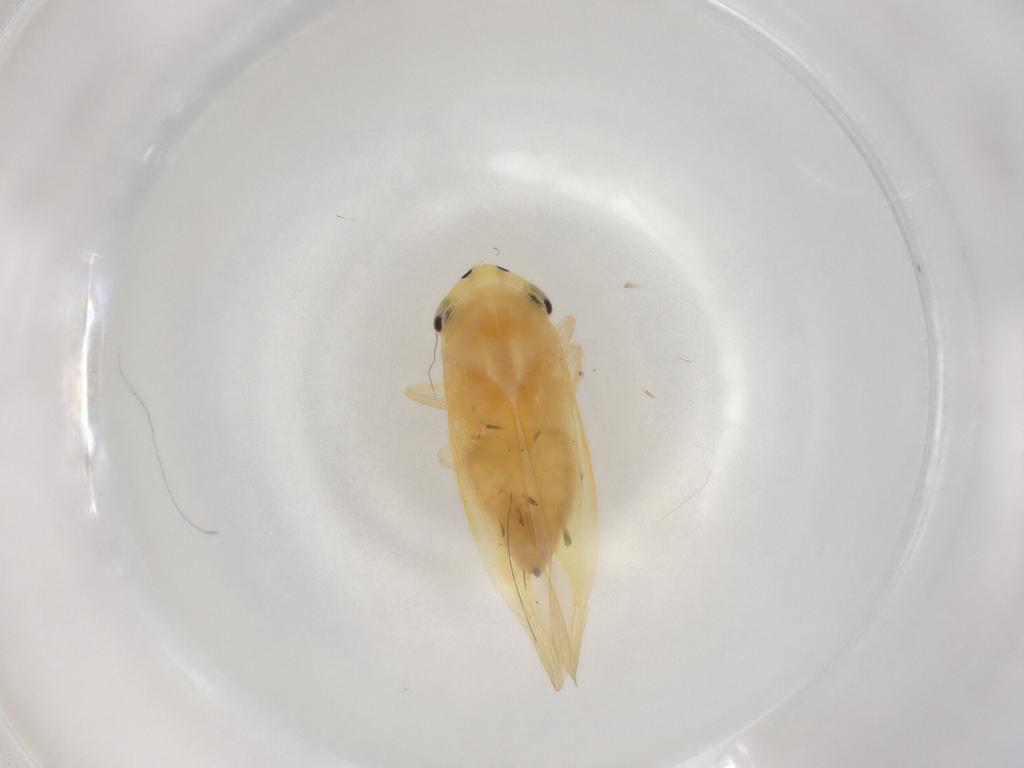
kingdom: Animalia
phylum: Arthropoda
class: Insecta
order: Hemiptera
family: Cicadellidae
